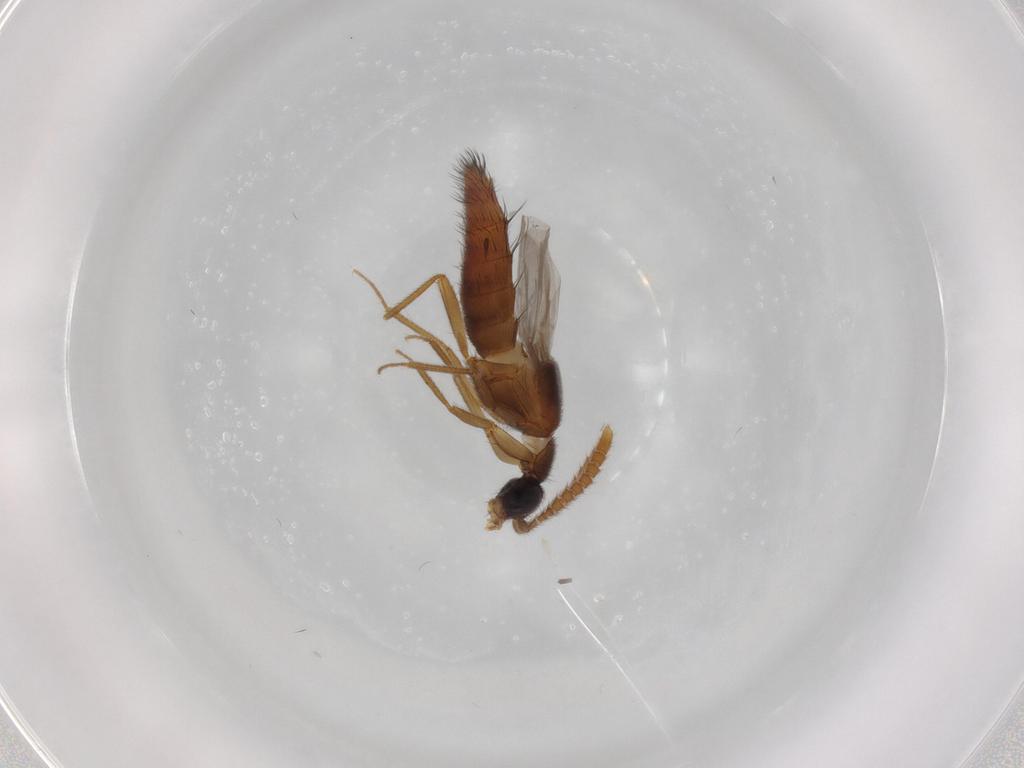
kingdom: Animalia
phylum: Arthropoda
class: Insecta
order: Coleoptera
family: Staphylinidae
